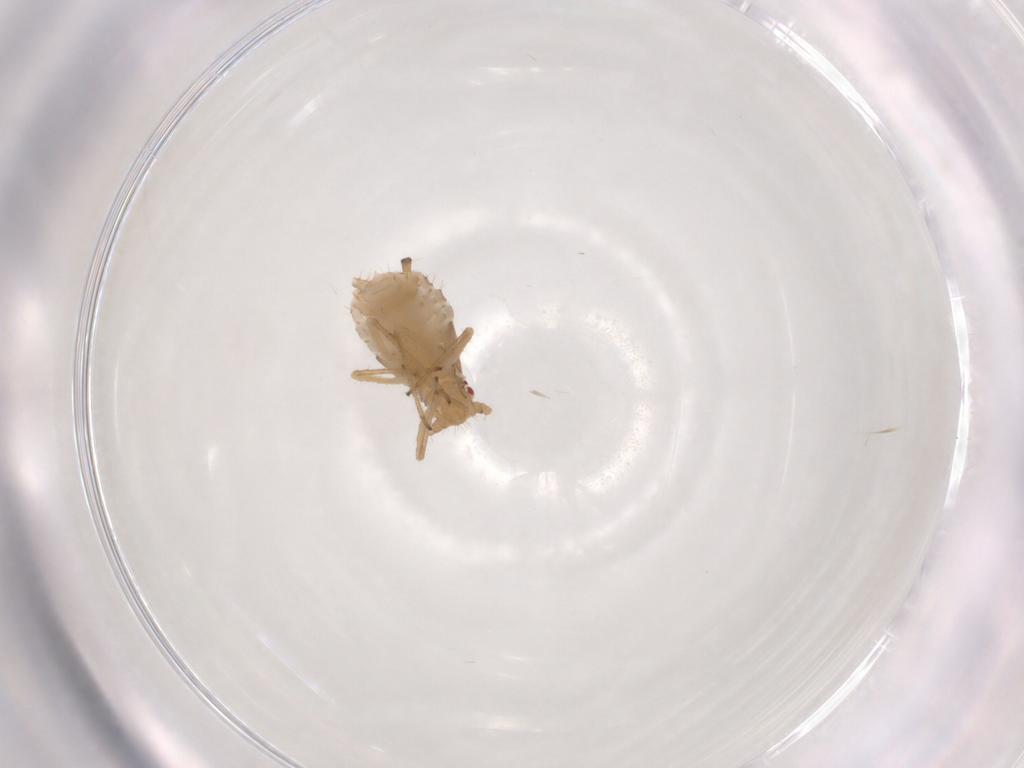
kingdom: Animalia
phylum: Arthropoda
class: Insecta
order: Hemiptera
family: Aphididae
